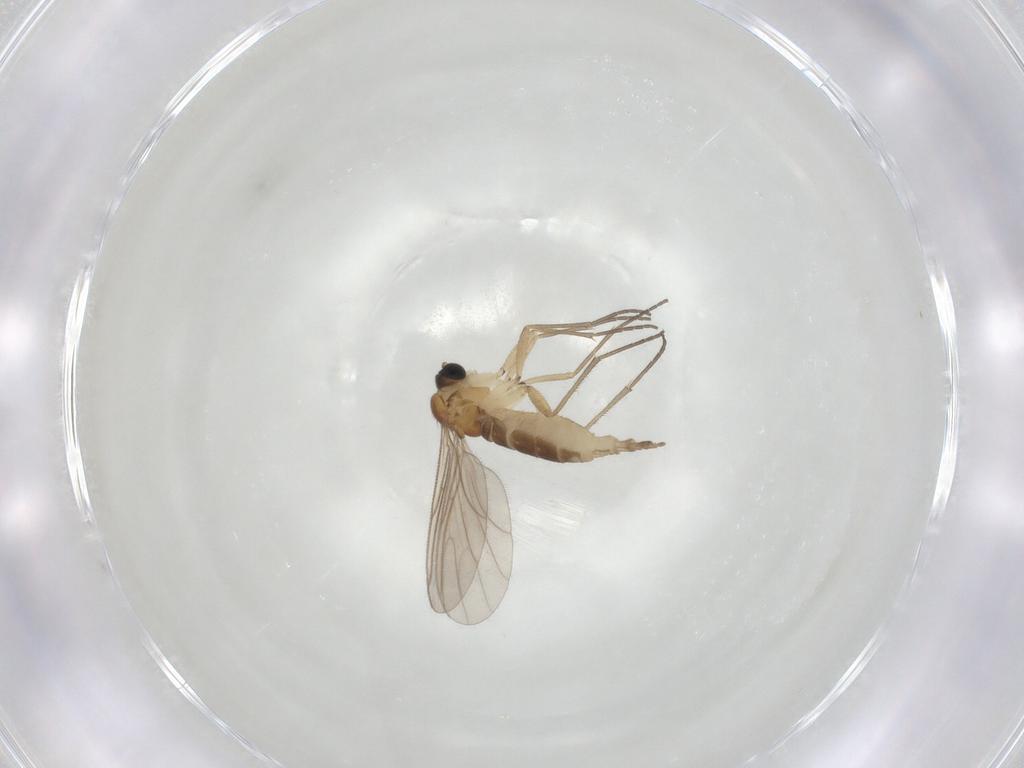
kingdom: Animalia
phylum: Arthropoda
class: Insecta
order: Diptera
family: Sciaridae
